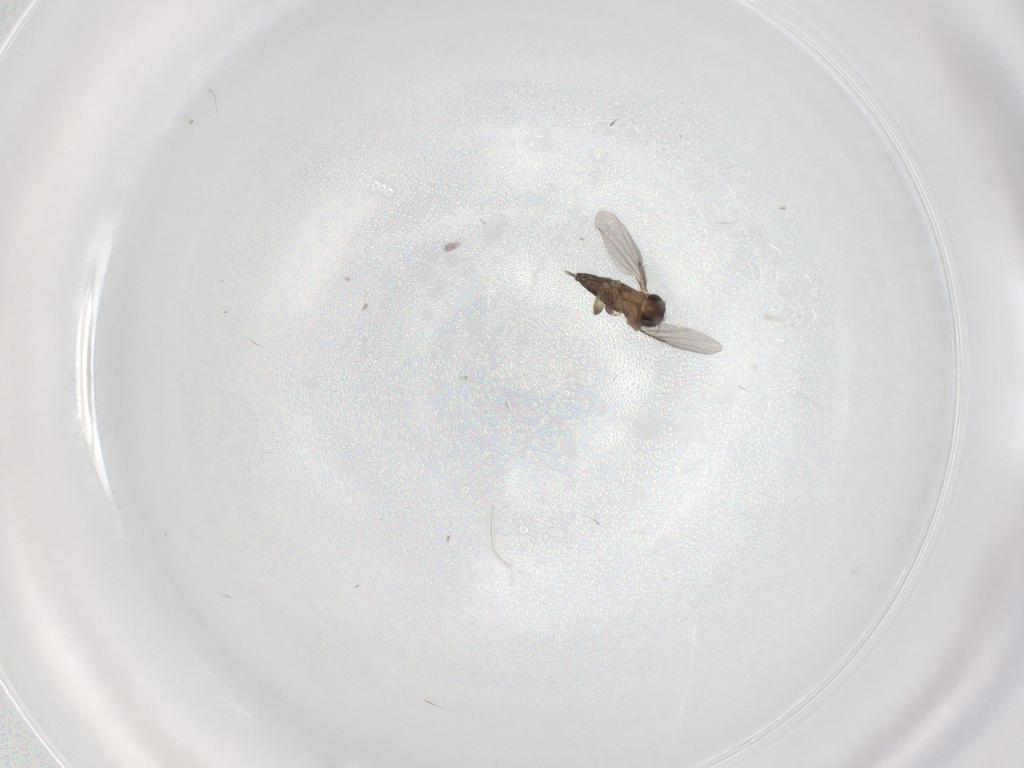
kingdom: Animalia
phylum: Arthropoda
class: Insecta
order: Diptera
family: Phoridae
